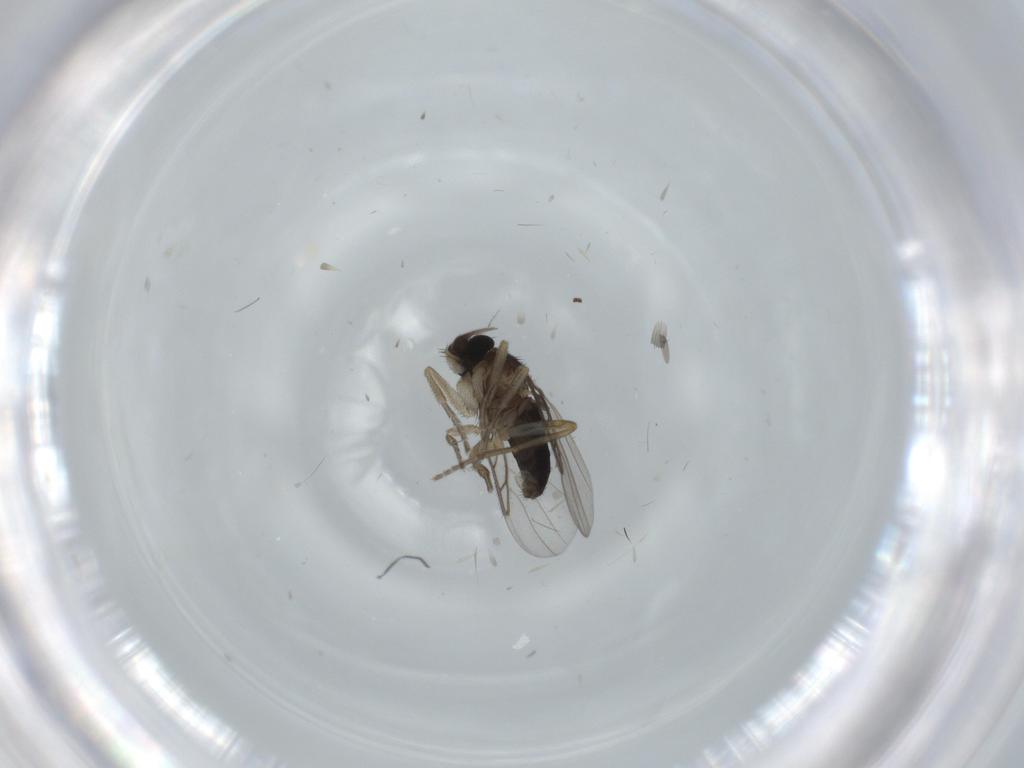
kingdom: Animalia
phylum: Arthropoda
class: Insecta
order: Diptera
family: Phoridae
